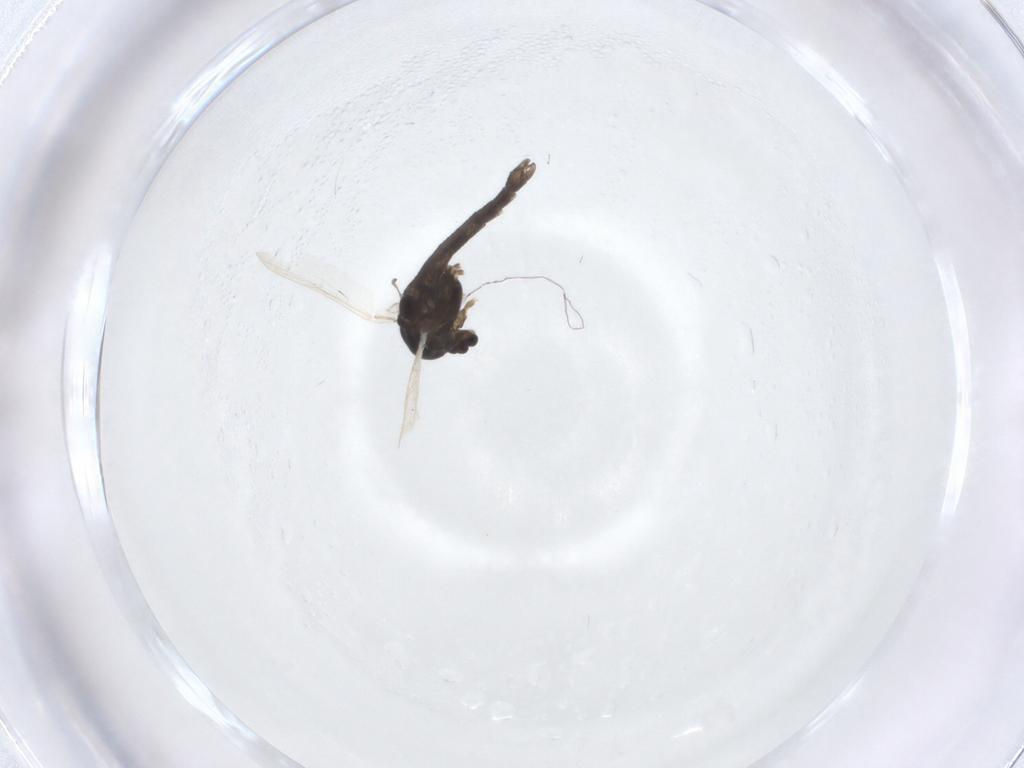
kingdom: Animalia
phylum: Arthropoda
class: Insecta
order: Diptera
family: Chironomidae
